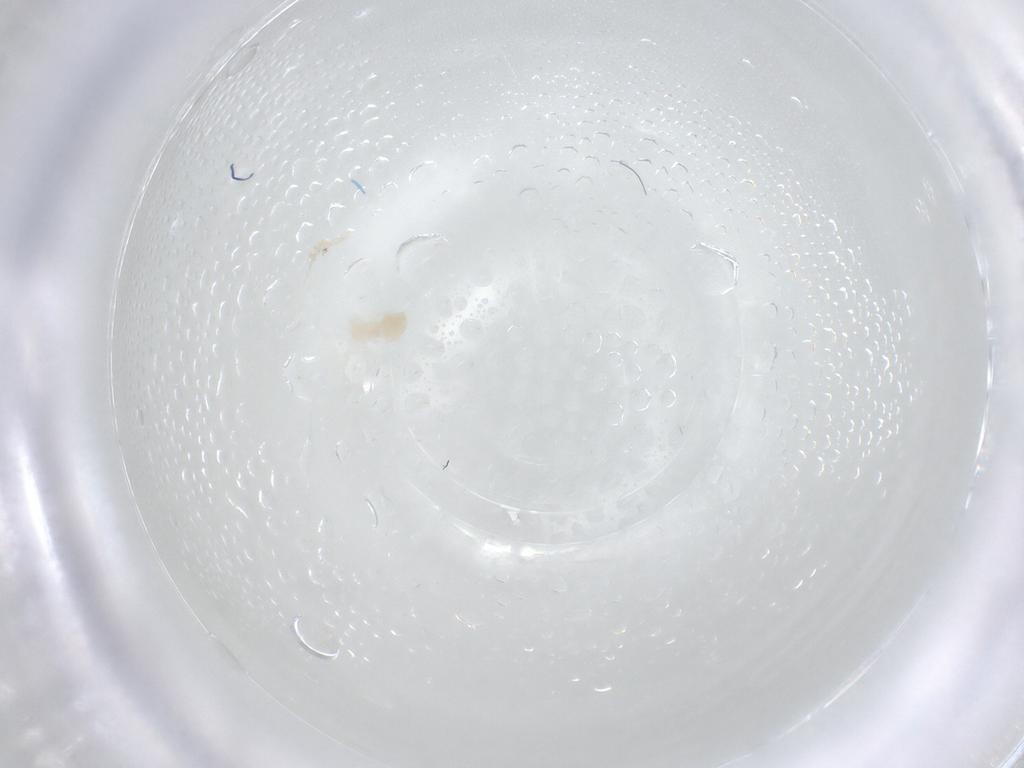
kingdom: Animalia
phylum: Arthropoda
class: Arachnida
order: Trombidiformes
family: Eupodidae
